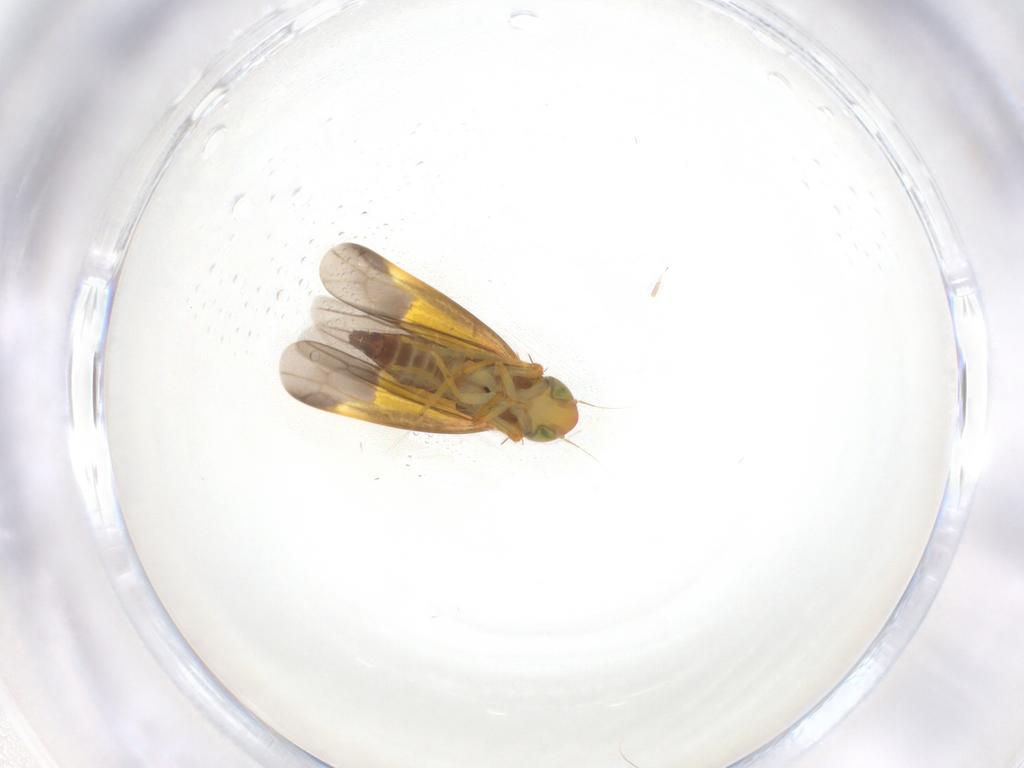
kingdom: Animalia
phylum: Arthropoda
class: Insecta
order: Hemiptera
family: Cicadellidae
